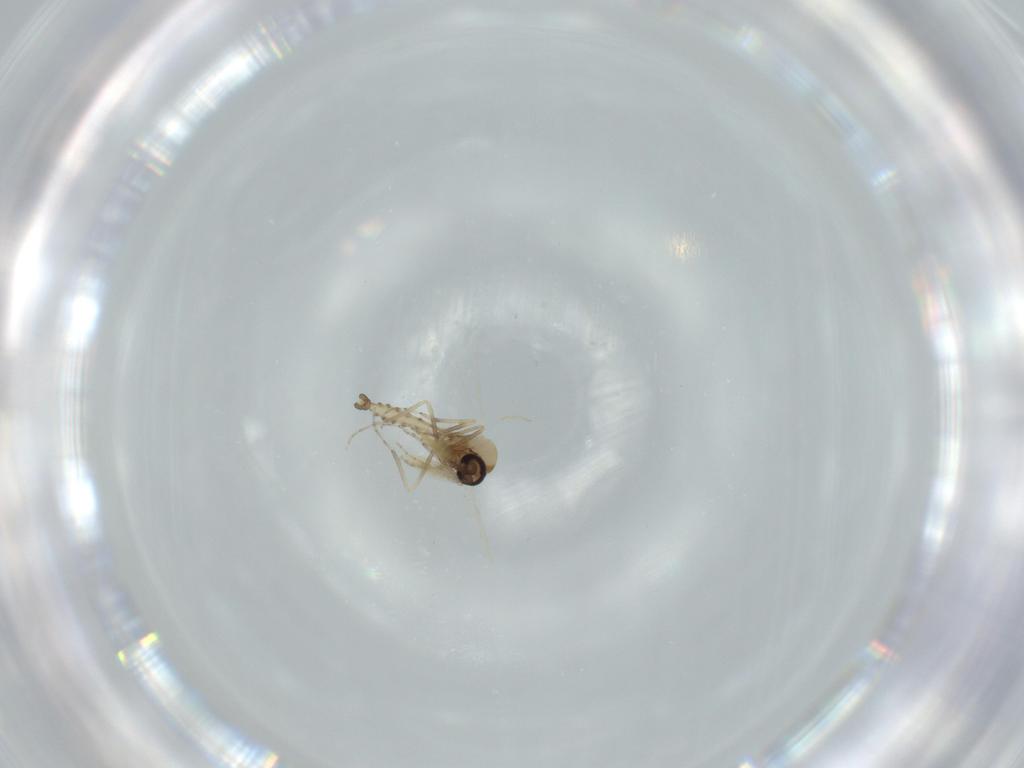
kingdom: Animalia
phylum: Arthropoda
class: Insecta
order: Diptera
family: Ceratopogonidae
